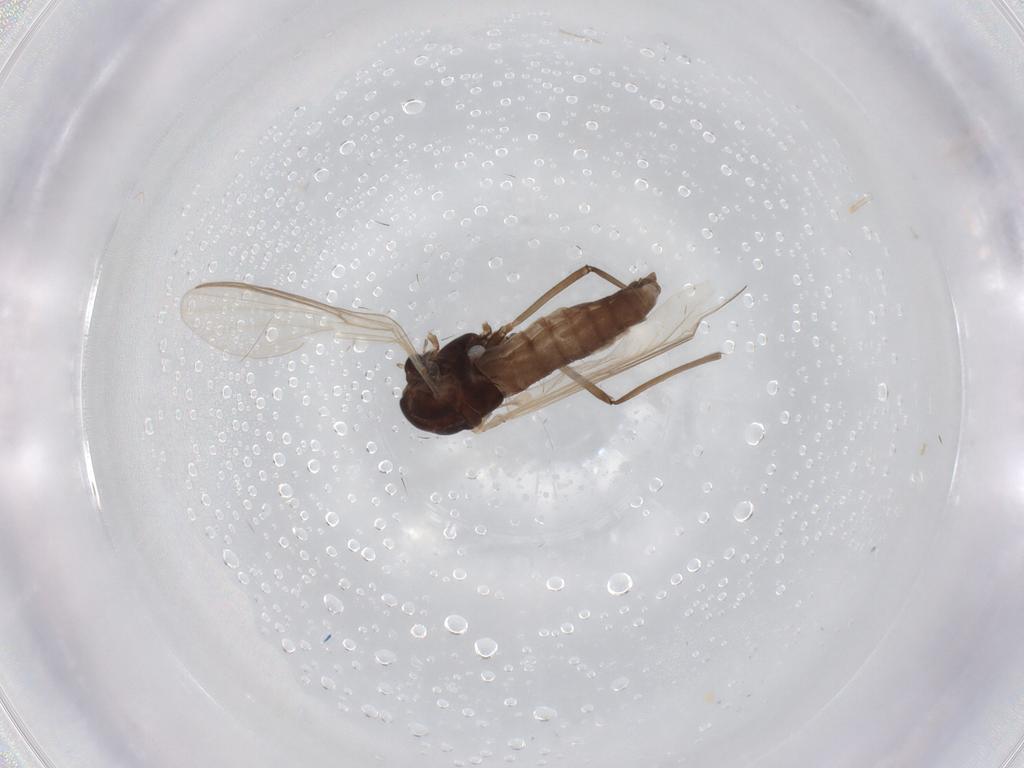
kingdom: Animalia
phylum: Arthropoda
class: Insecta
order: Diptera
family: Chironomidae
